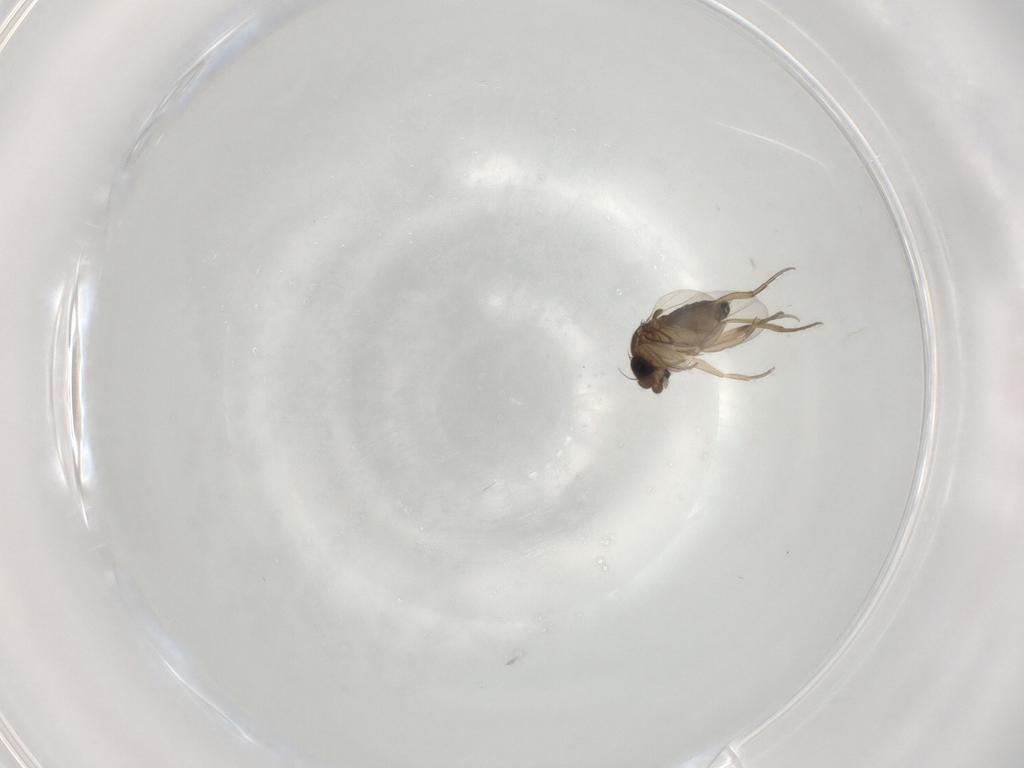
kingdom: Animalia
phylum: Arthropoda
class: Insecta
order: Diptera
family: Phoridae
